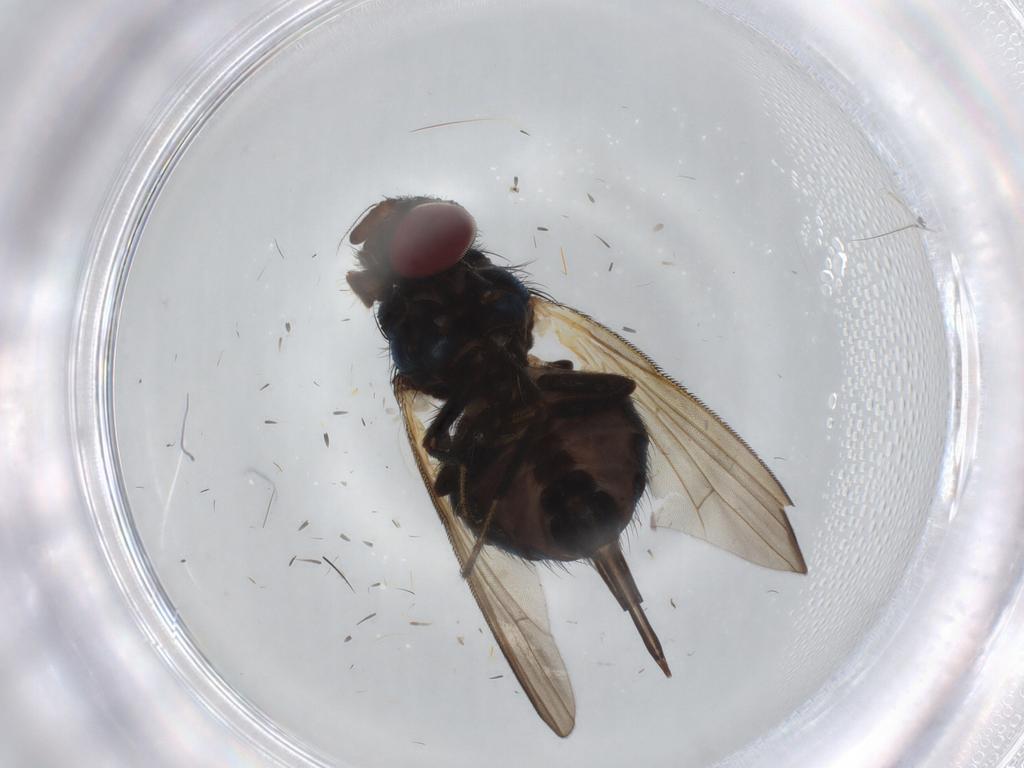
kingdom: Animalia
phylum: Arthropoda
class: Insecta
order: Diptera
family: Lonchaeidae
